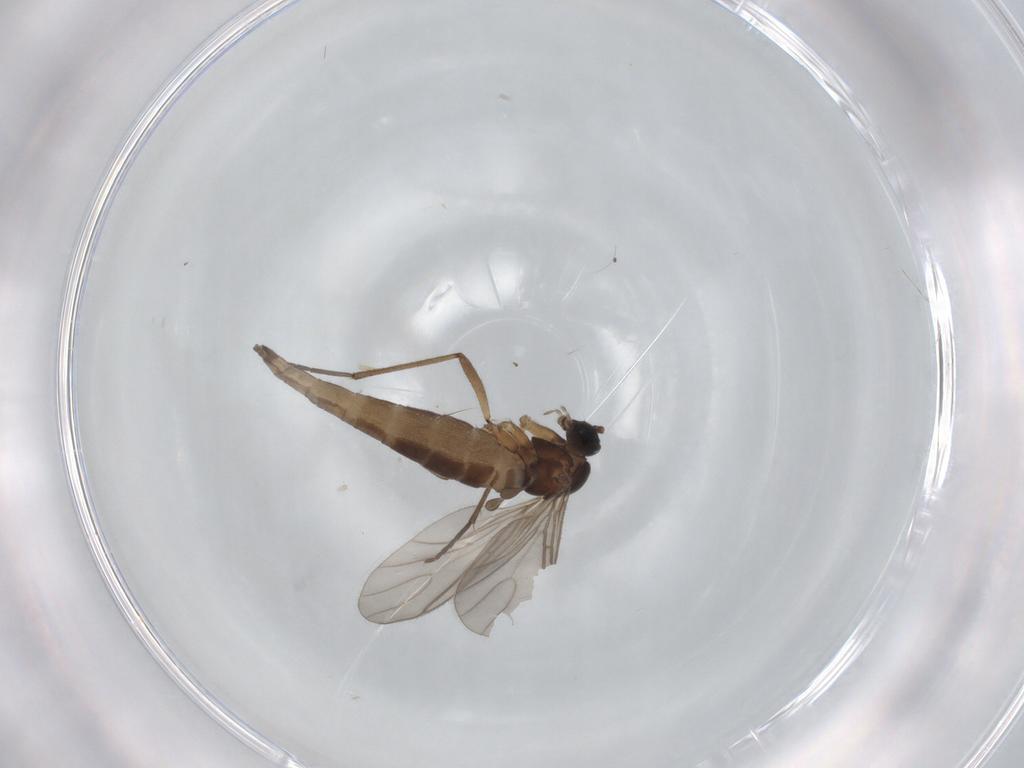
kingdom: Animalia
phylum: Arthropoda
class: Insecta
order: Diptera
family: Sciaridae
